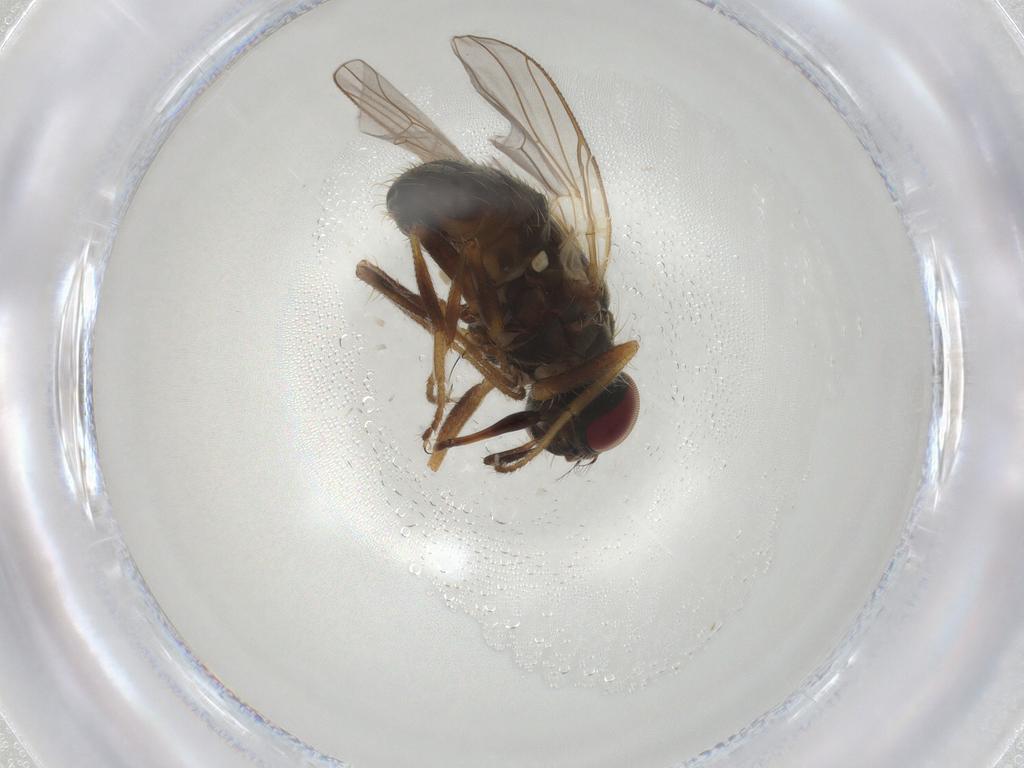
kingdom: Animalia
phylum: Arthropoda
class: Insecta
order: Diptera
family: Muscidae
